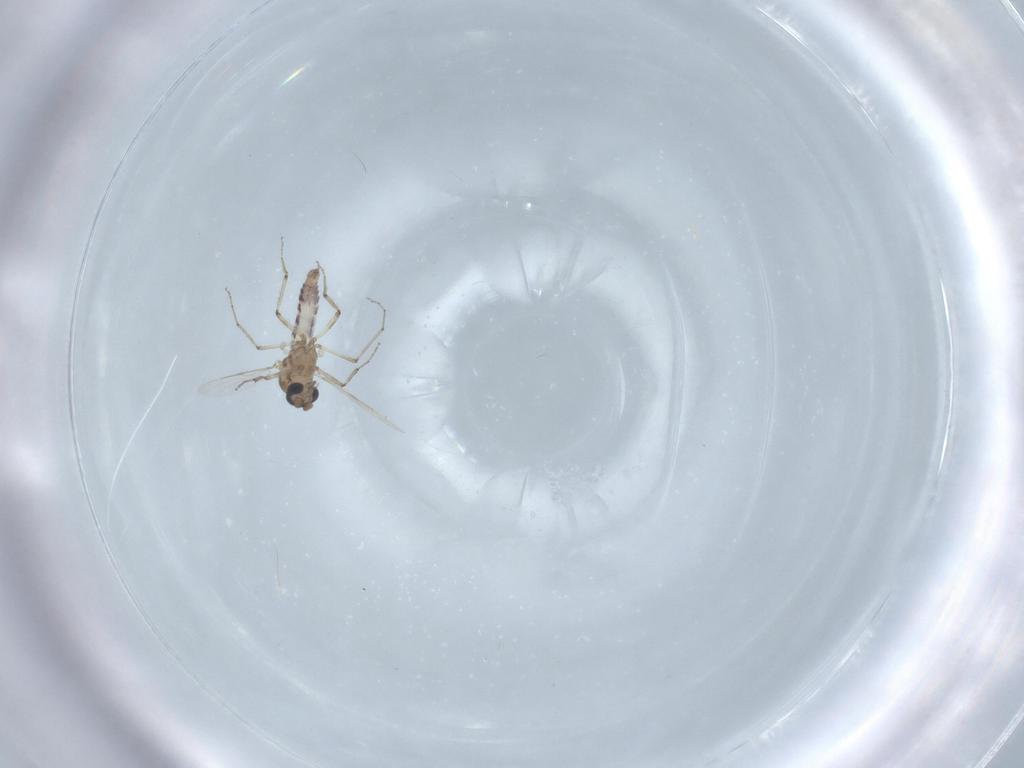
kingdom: Animalia
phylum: Arthropoda
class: Insecta
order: Diptera
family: Ceratopogonidae
